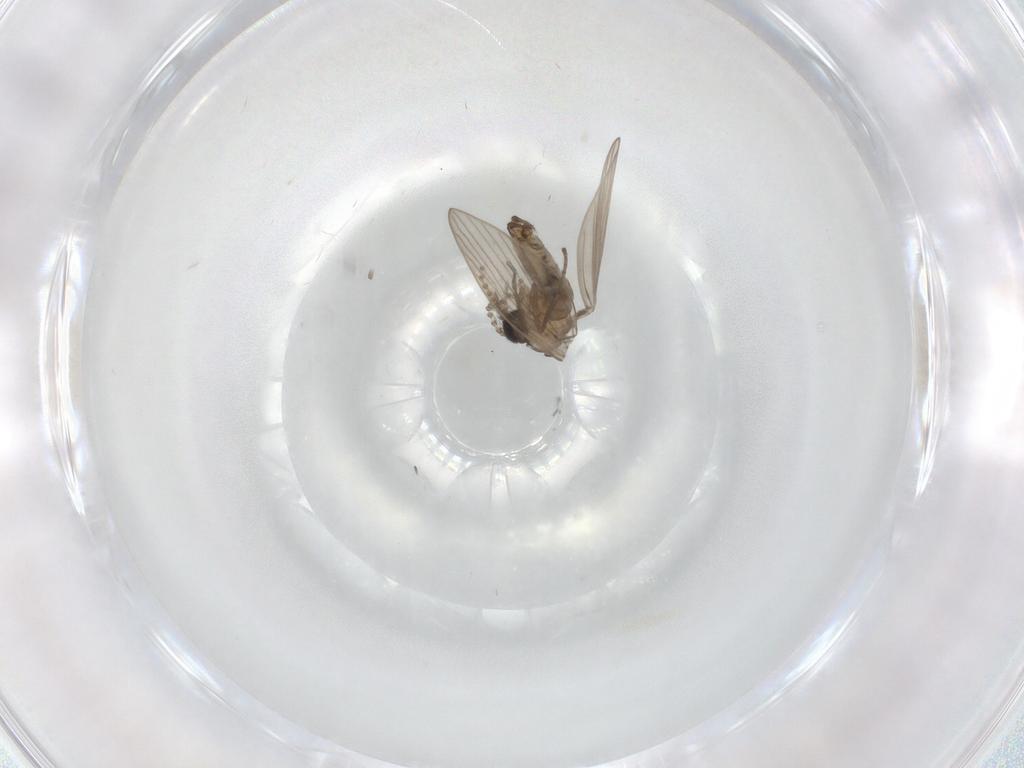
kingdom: Animalia
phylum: Arthropoda
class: Insecta
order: Diptera
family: Psychodidae
